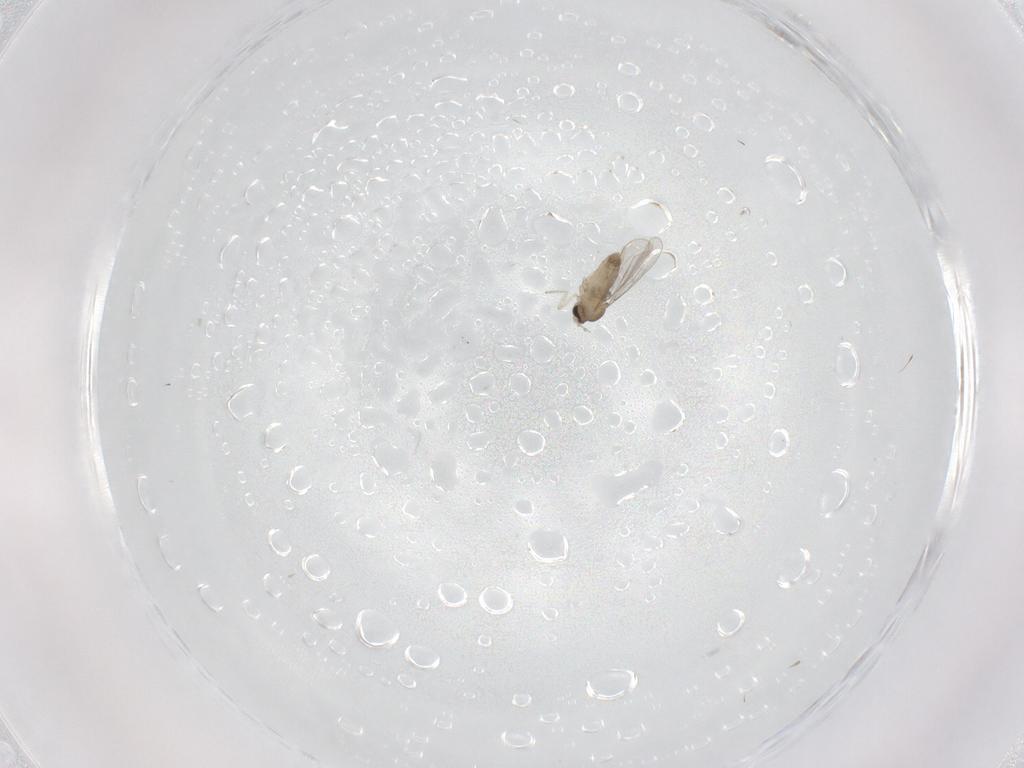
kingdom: Animalia
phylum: Arthropoda
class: Insecta
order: Diptera
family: Cecidomyiidae
